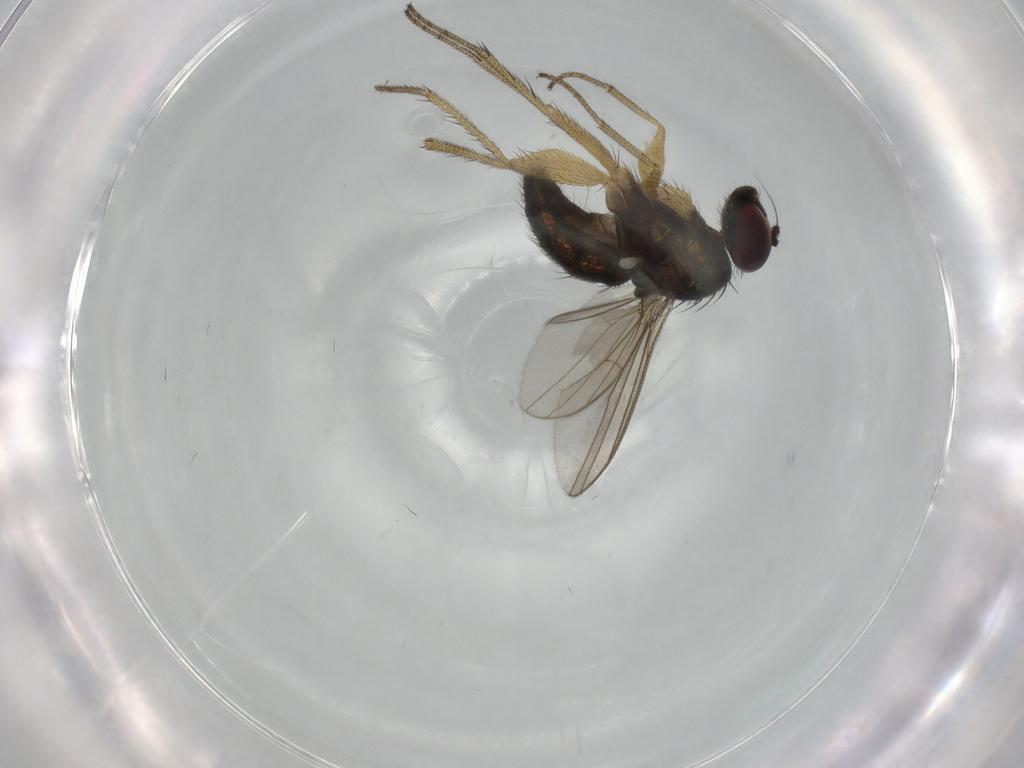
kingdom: Animalia
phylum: Arthropoda
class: Insecta
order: Diptera
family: Dolichopodidae
